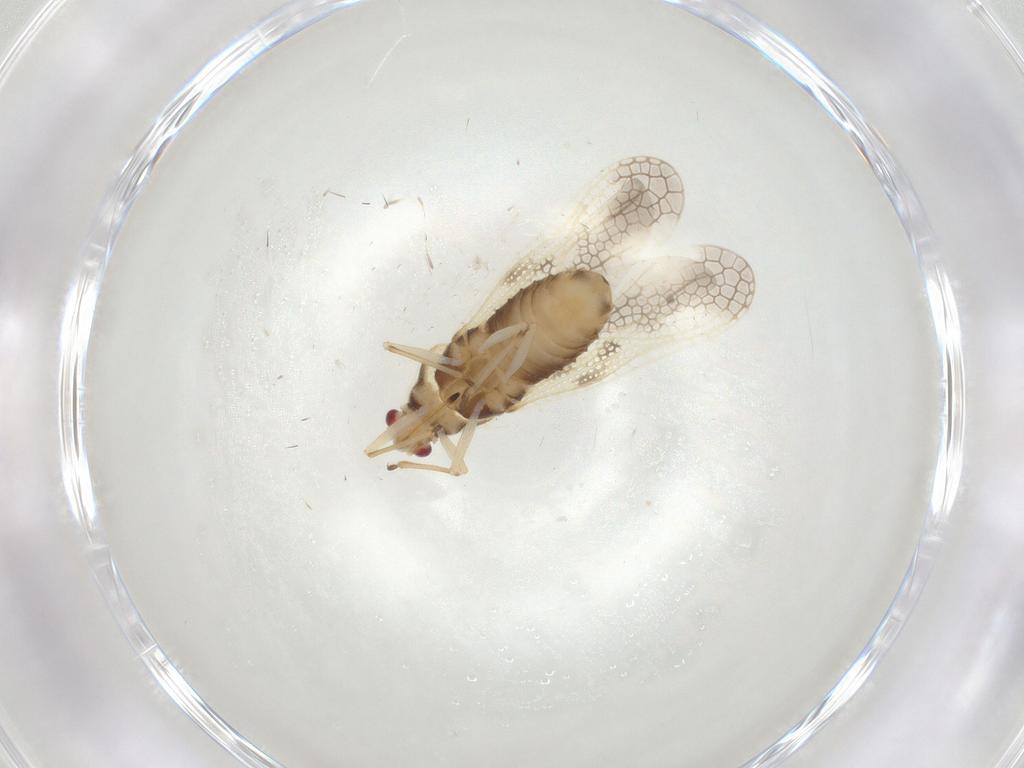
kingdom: Animalia
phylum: Arthropoda
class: Insecta
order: Hemiptera
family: Tingidae
